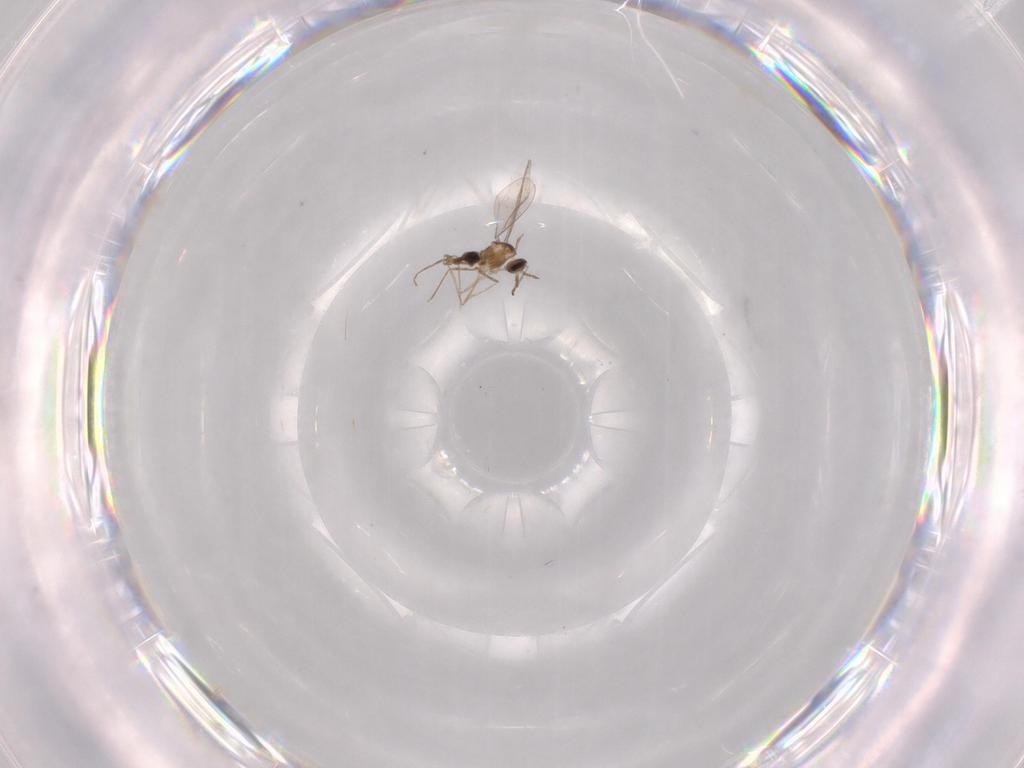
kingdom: Animalia
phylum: Arthropoda
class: Insecta
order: Diptera
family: Chironomidae
